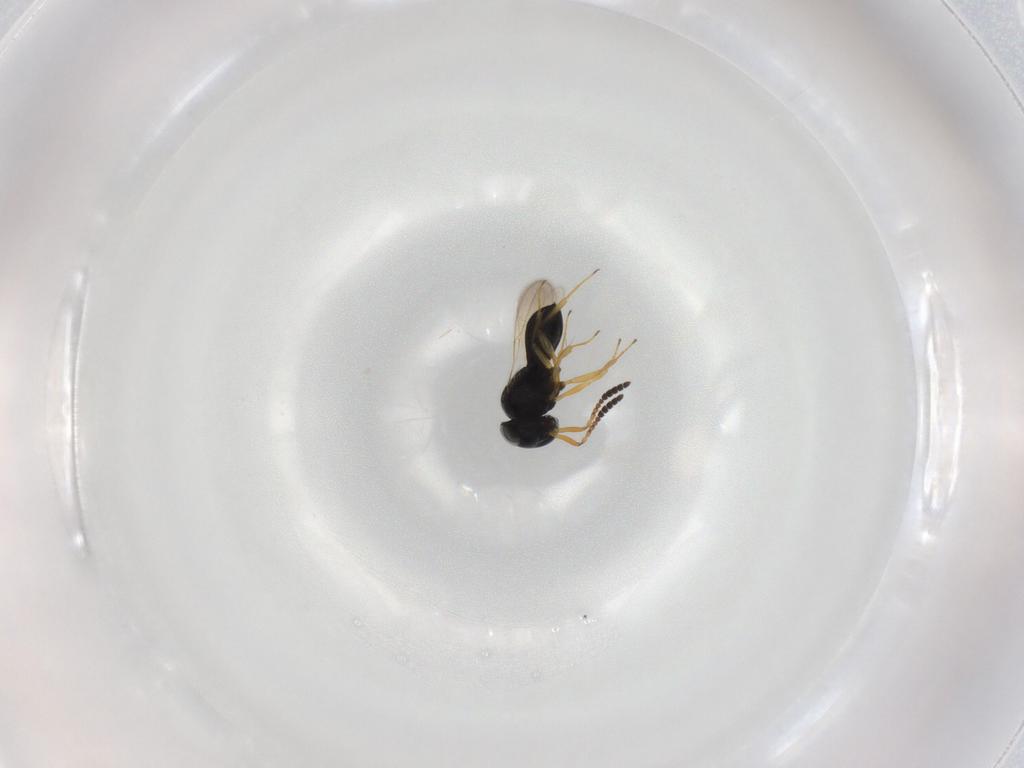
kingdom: Animalia
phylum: Arthropoda
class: Insecta
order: Hymenoptera
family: Scelionidae
